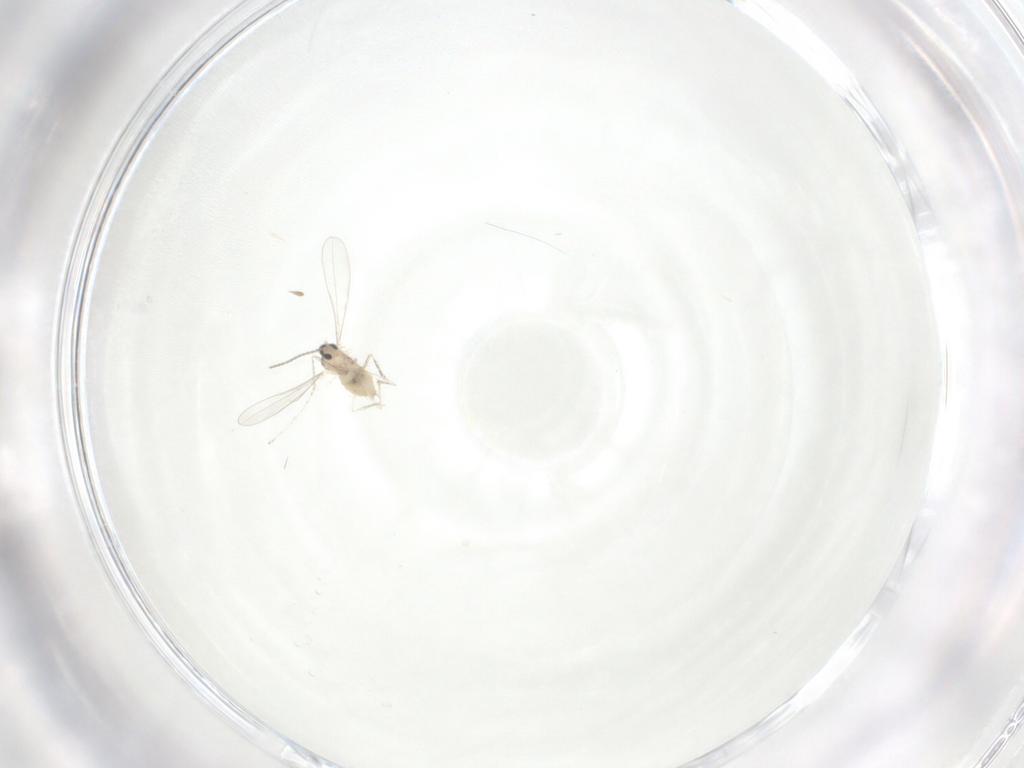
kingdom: Animalia
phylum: Arthropoda
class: Insecta
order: Diptera
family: Cecidomyiidae
